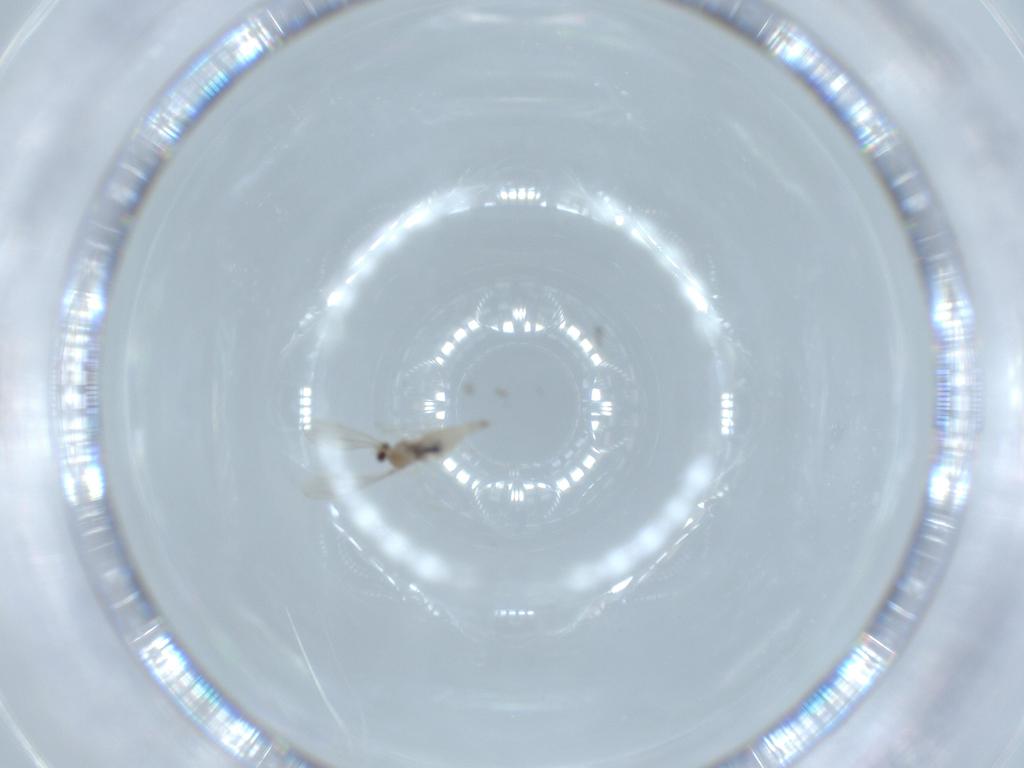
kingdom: Animalia
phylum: Arthropoda
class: Insecta
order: Diptera
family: Cecidomyiidae
